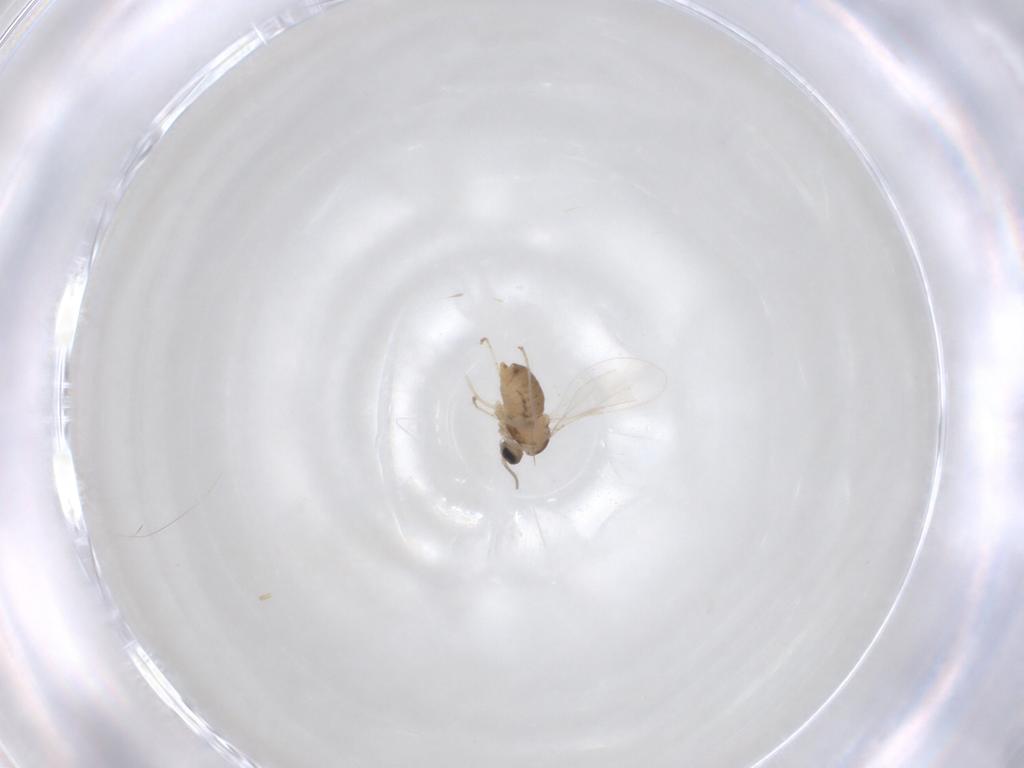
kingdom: Animalia
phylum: Arthropoda
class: Insecta
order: Diptera
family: Cecidomyiidae
